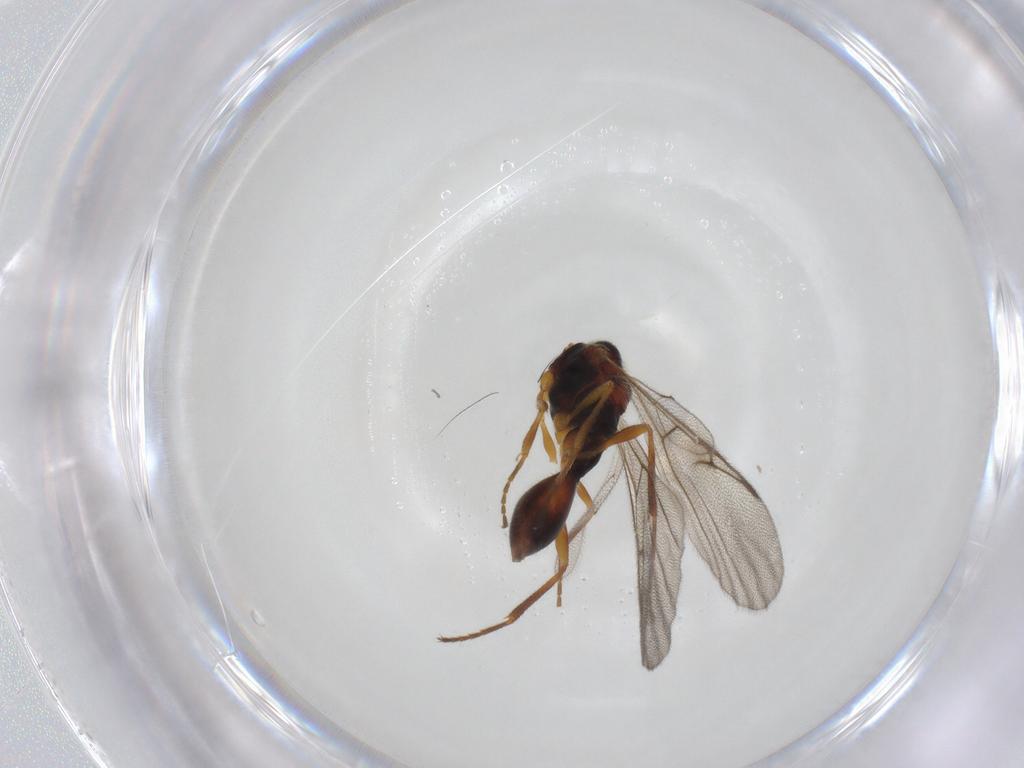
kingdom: Animalia
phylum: Arthropoda
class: Insecta
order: Hymenoptera
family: Diapriidae
